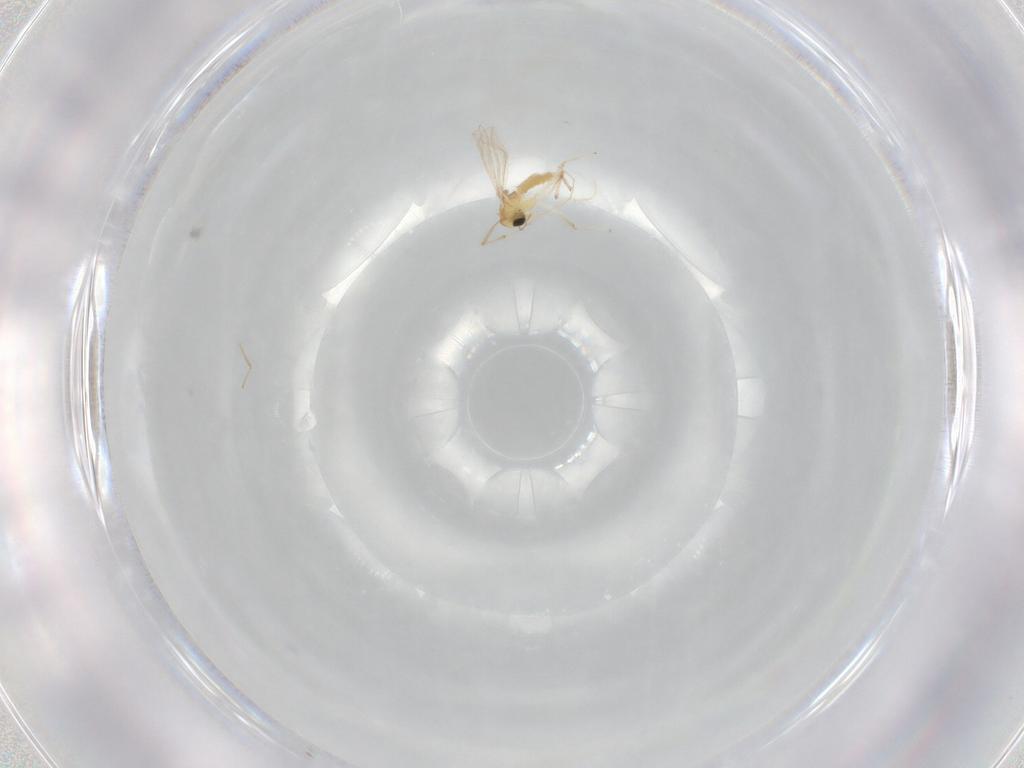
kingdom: Animalia
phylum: Arthropoda
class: Insecta
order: Diptera
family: Chironomidae
